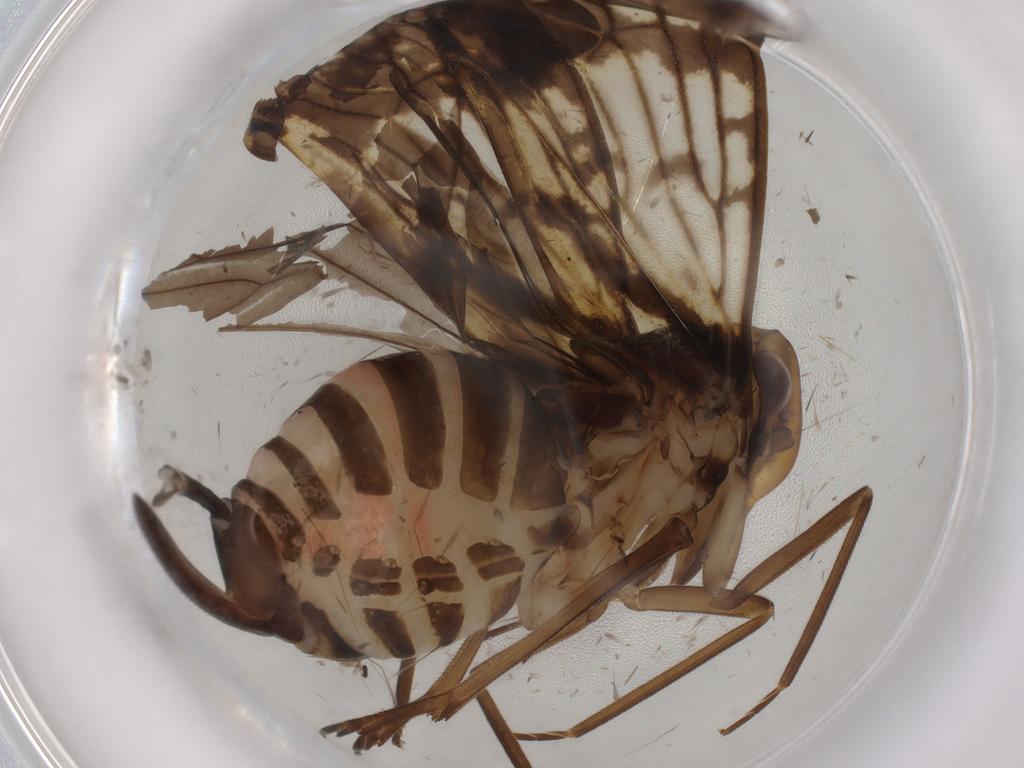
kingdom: Animalia
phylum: Arthropoda
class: Insecta
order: Hemiptera
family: Cixiidae
